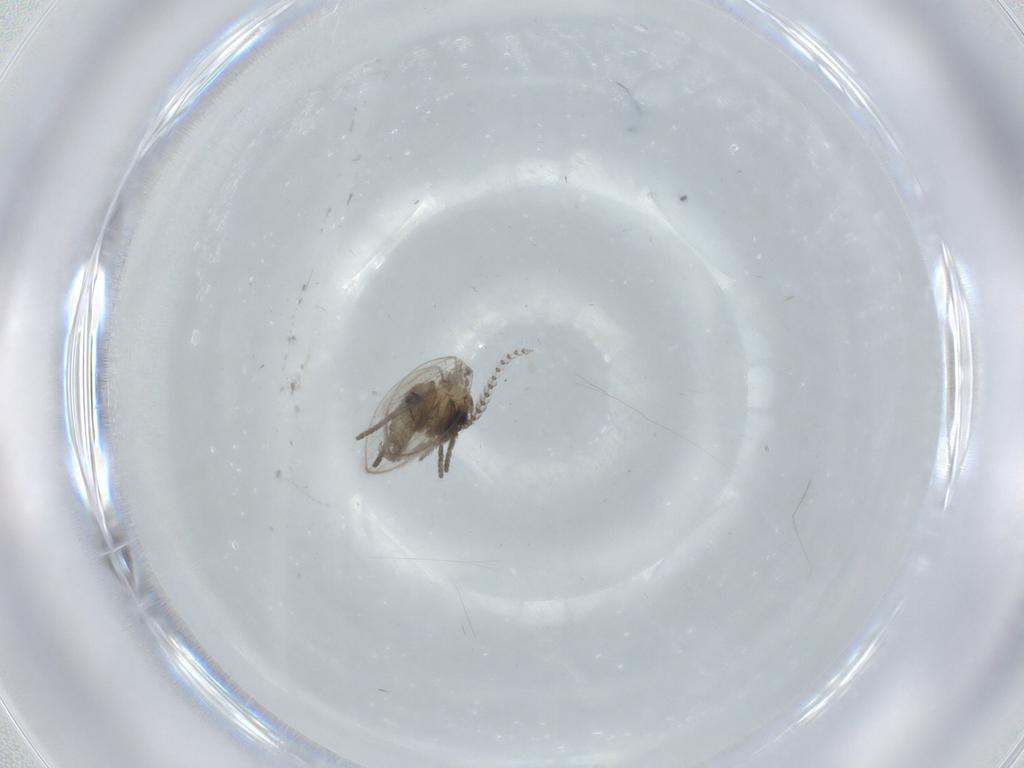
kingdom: Animalia
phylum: Arthropoda
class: Insecta
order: Diptera
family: Sciaridae
